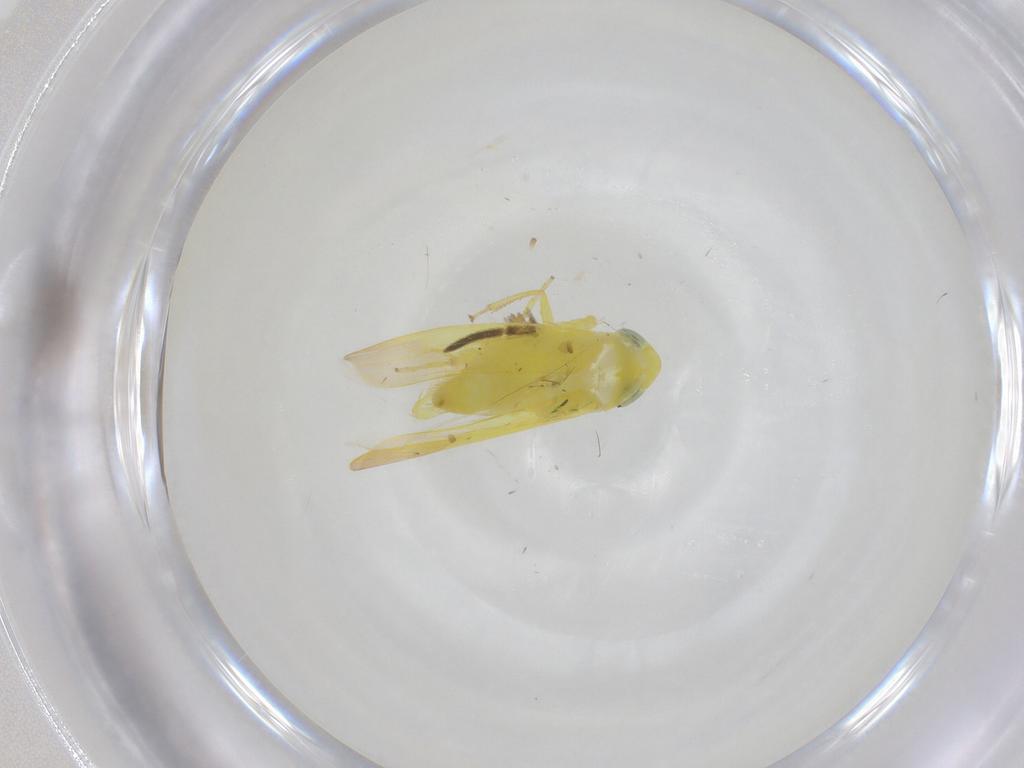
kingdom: Animalia
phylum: Arthropoda
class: Insecta
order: Hemiptera
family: Cicadellidae
